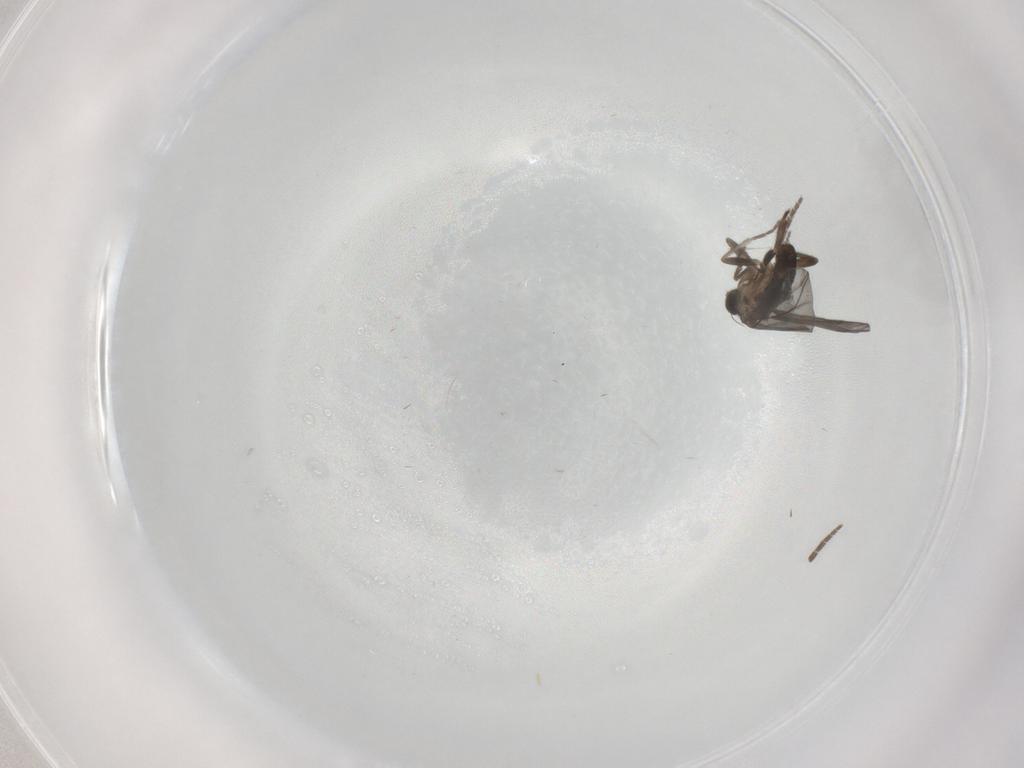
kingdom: Animalia
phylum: Arthropoda
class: Insecta
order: Diptera
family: Phoridae
